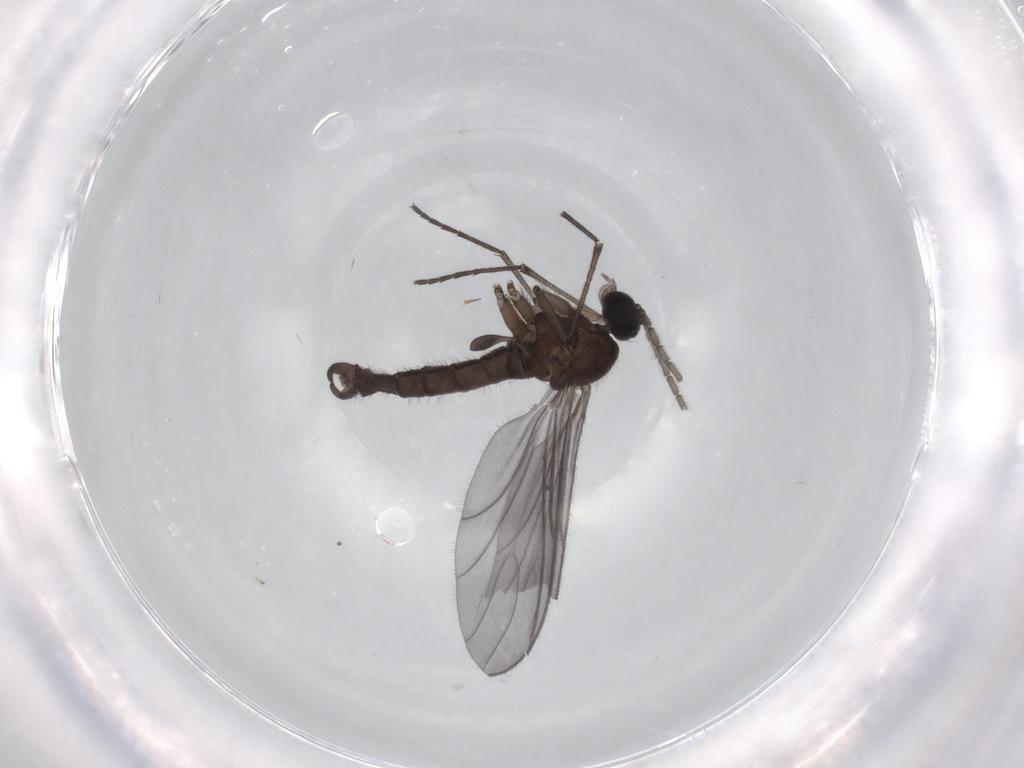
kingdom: Animalia
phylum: Arthropoda
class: Insecta
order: Diptera
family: Sciaridae
